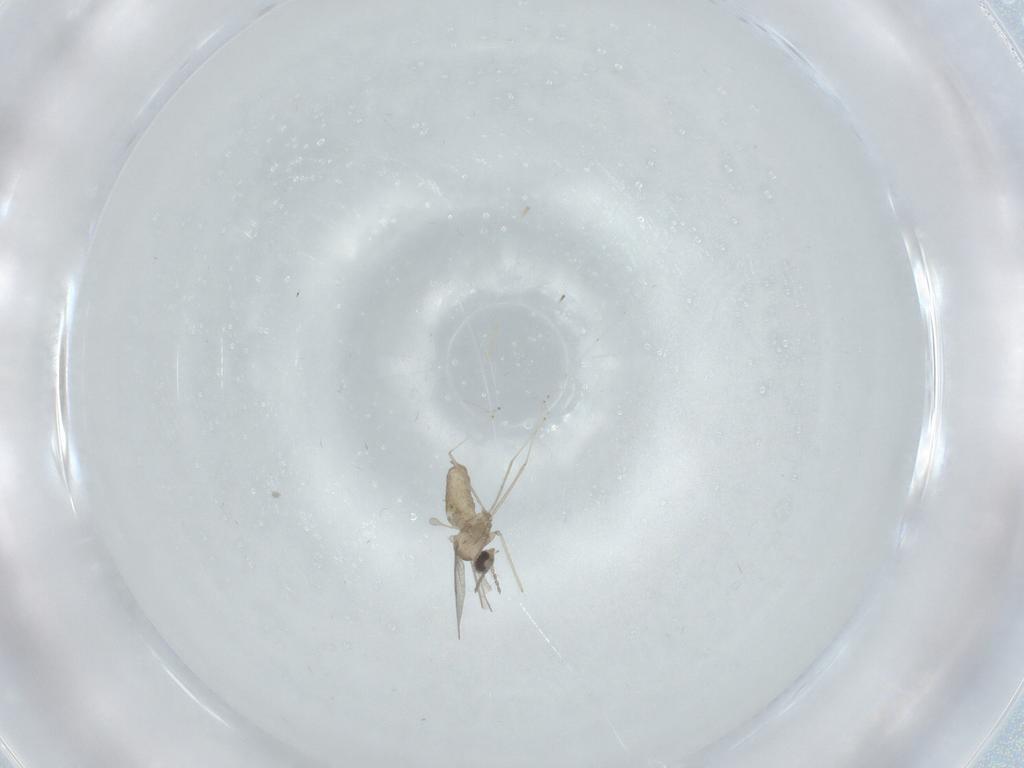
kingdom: Animalia
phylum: Arthropoda
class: Insecta
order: Diptera
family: Cecidomyiidae
